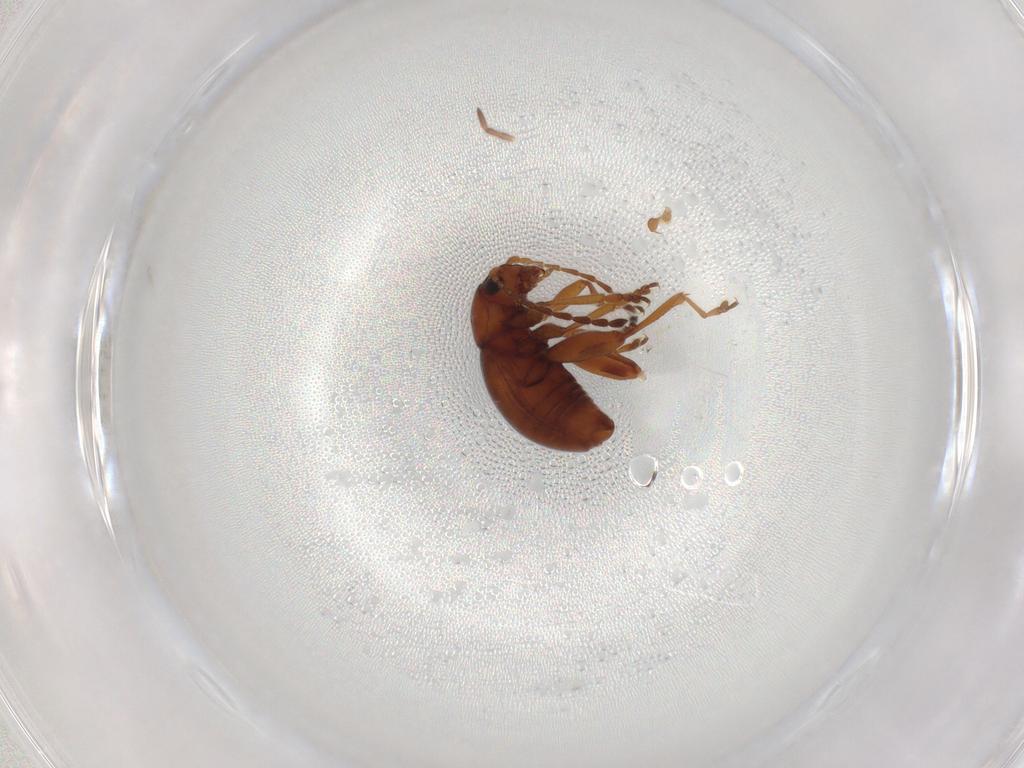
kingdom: Animalia
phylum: Arthropoda
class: Insecta
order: Coleoptera
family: Chrysomelidae
